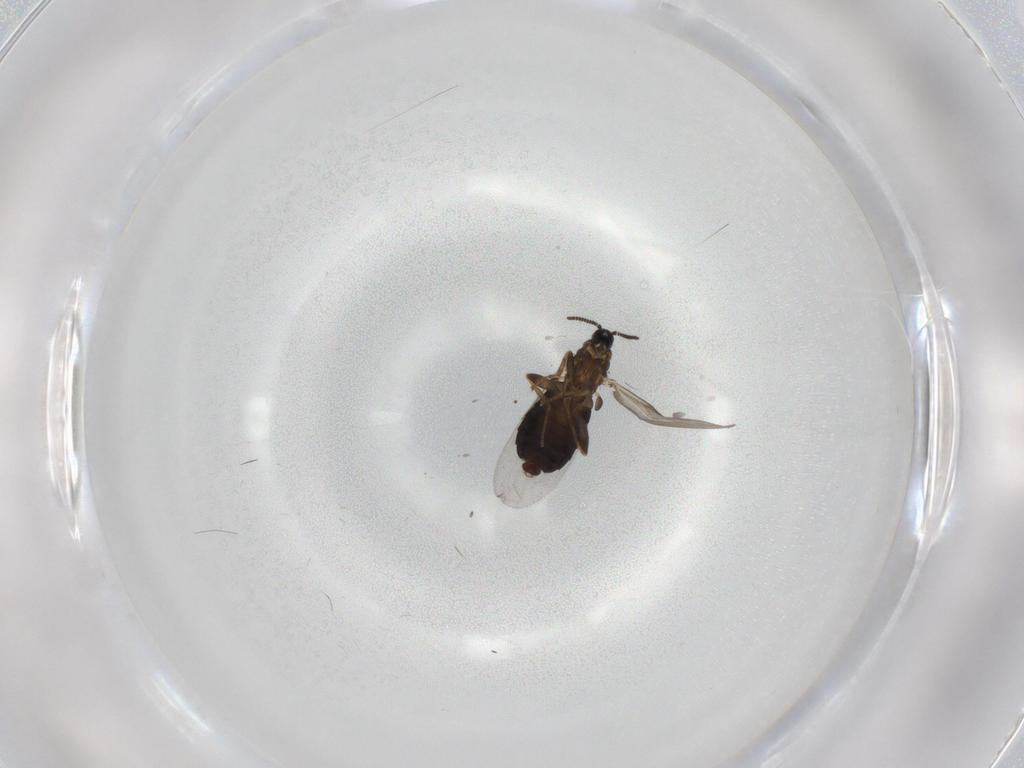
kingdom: Animalia
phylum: Arthropoda
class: Insecta
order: Diptera
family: Scatopsidae
